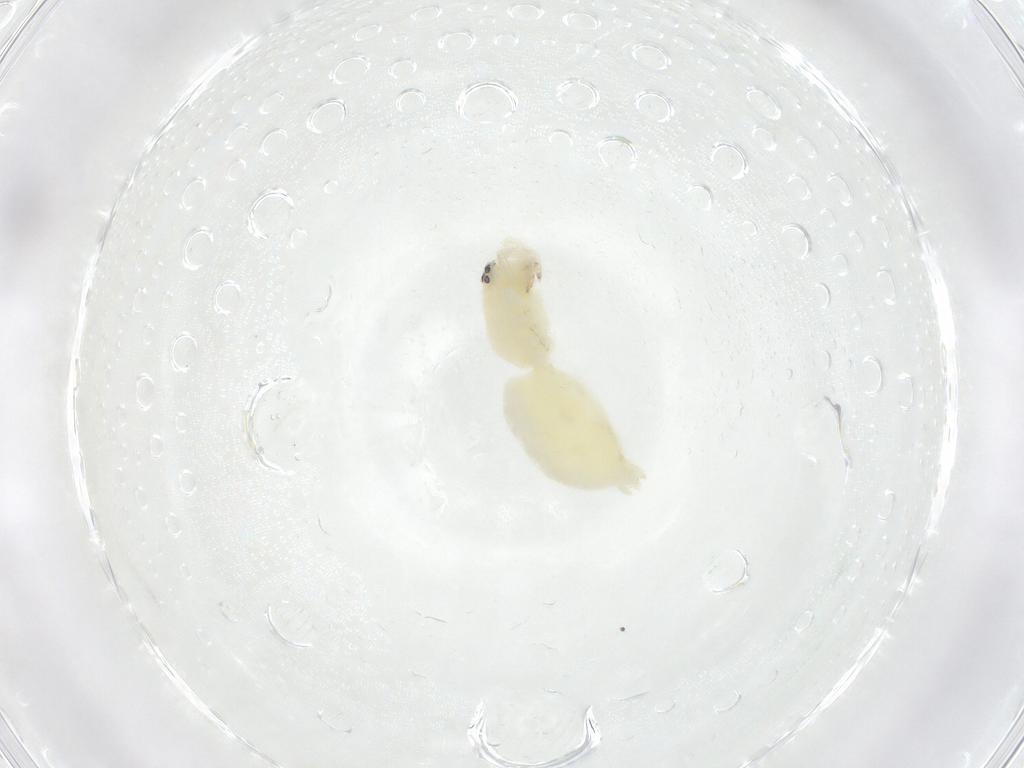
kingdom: Animalia
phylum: Arthropoda
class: Arachnida
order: Araneae
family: Anyphaenidae
